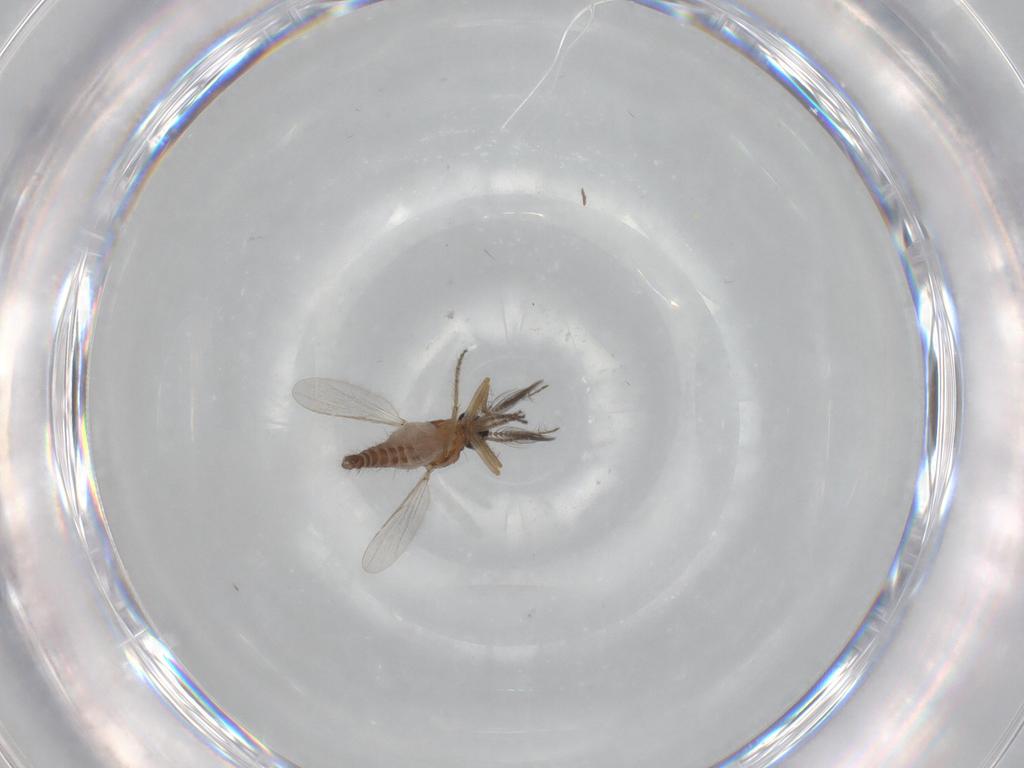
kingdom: Animalia
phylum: Arthropoda
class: Insecta
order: Diptera
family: Ceratopogonidae
